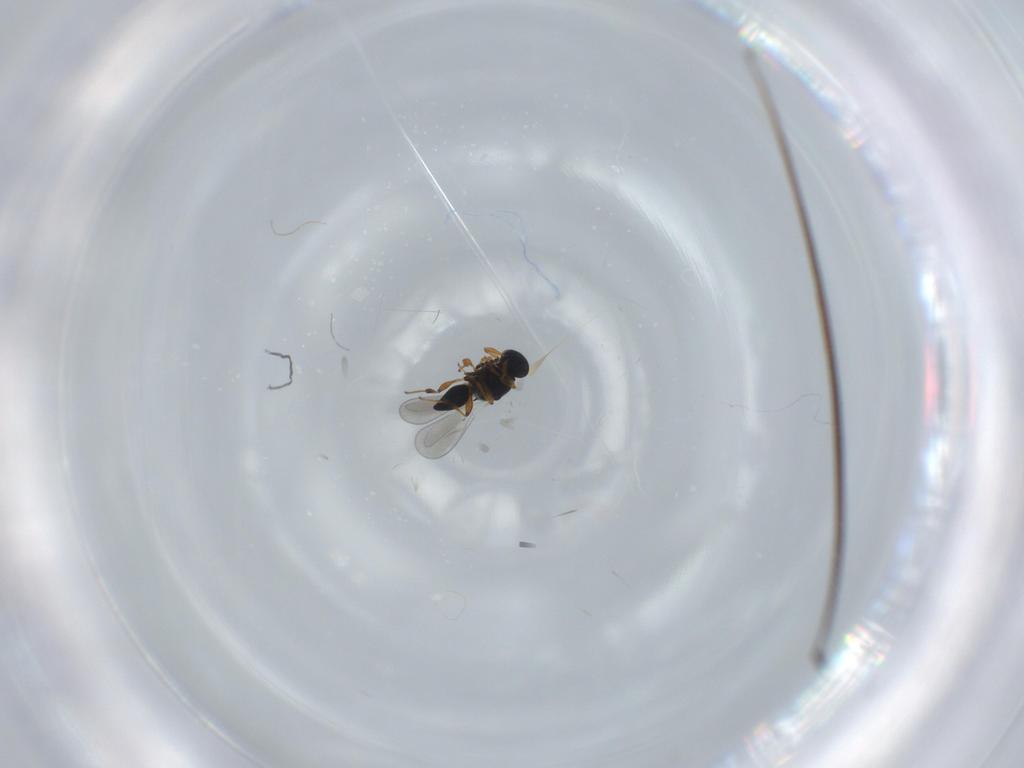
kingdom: Animalia
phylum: Arthropoda
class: Insecta
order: Hymenoptera
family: Platygastridae
